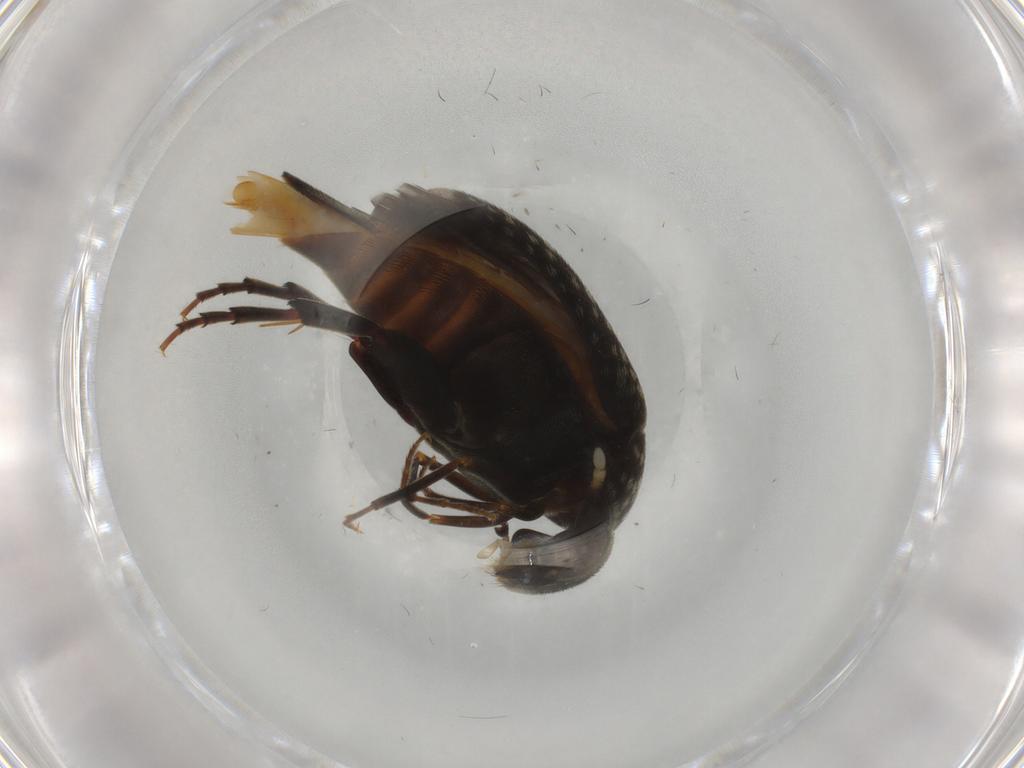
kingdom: Animalia
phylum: Arthropoda
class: Insecta
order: Coleoptera
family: Mordellidae
